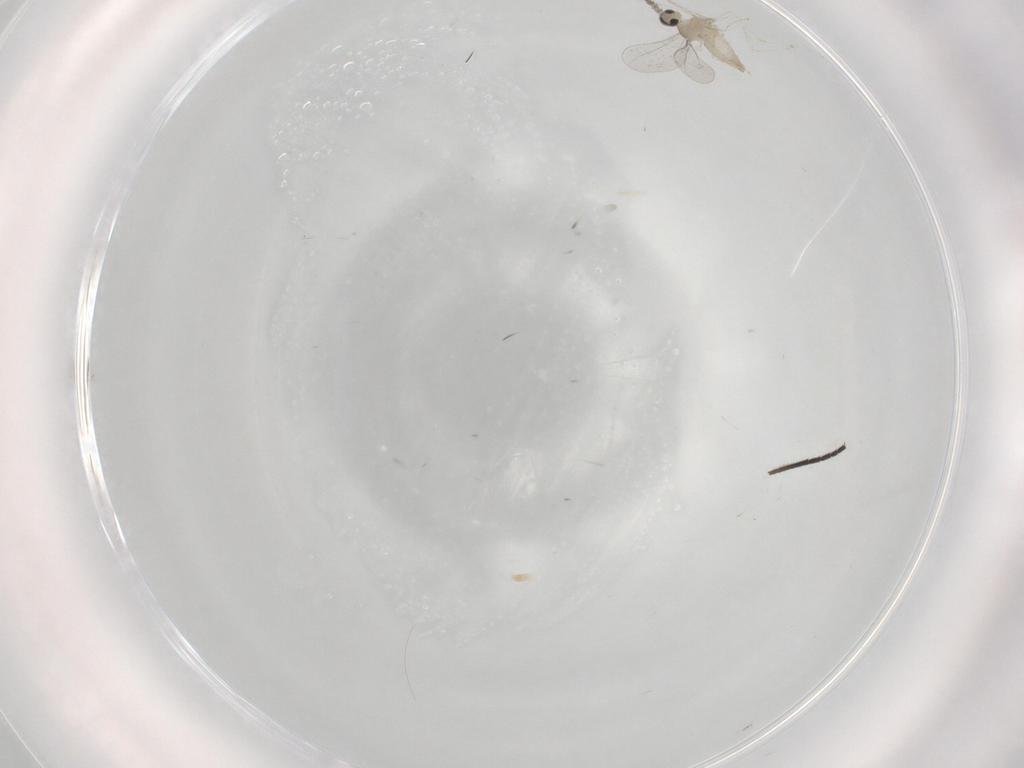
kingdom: Animalia
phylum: Arthropoda
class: Insecta
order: Diptera
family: Cecidomyiidae
